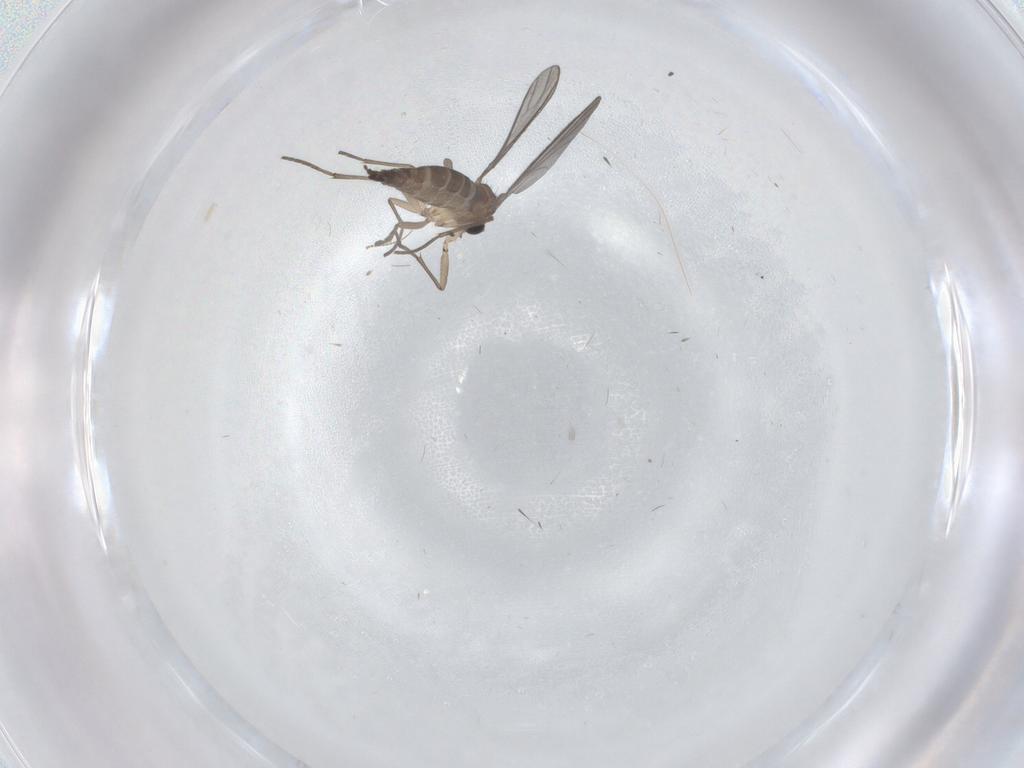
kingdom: Animalia
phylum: Arthropoda
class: Insecta
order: Diptera
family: Sciaridae
